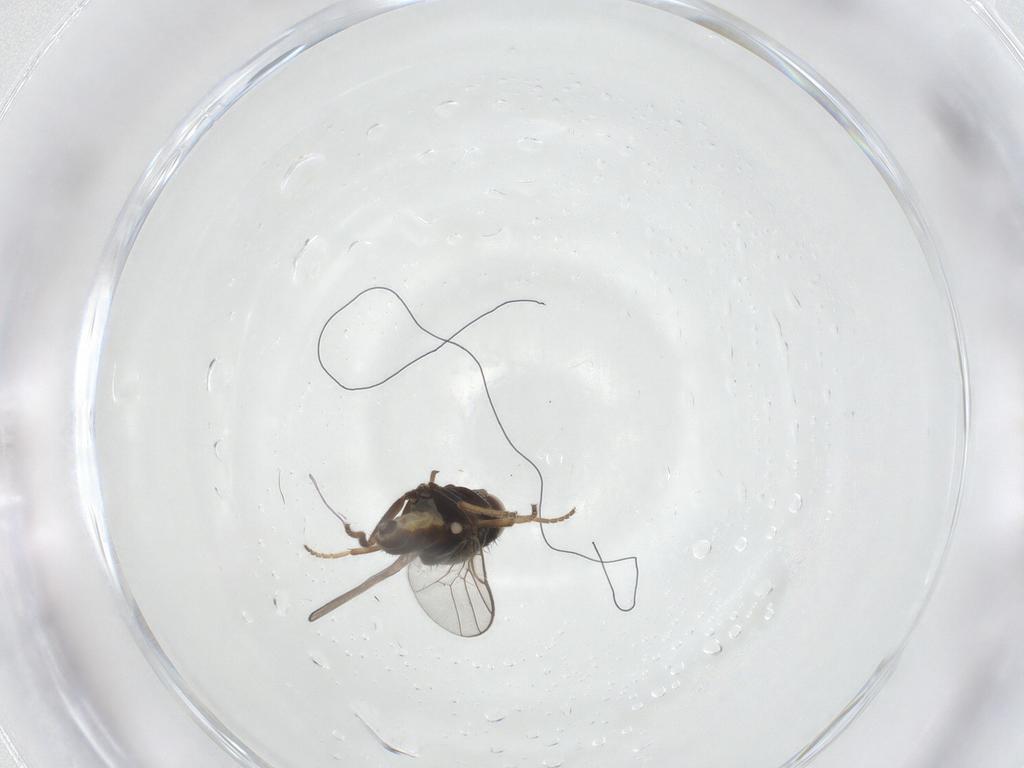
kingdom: Animalia
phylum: Arthropoda
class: Insecta
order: Diptera
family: Chloropidae
